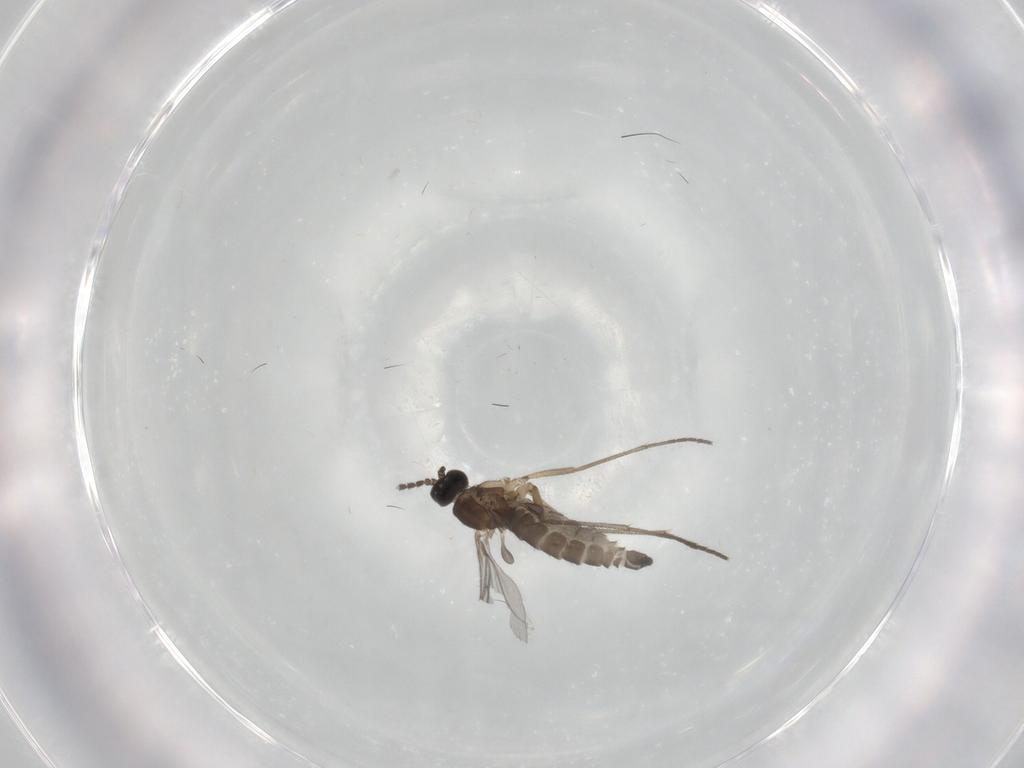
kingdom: Animalia
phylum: Arthropoda
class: Insecta
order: Diptera
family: Sciaridae
